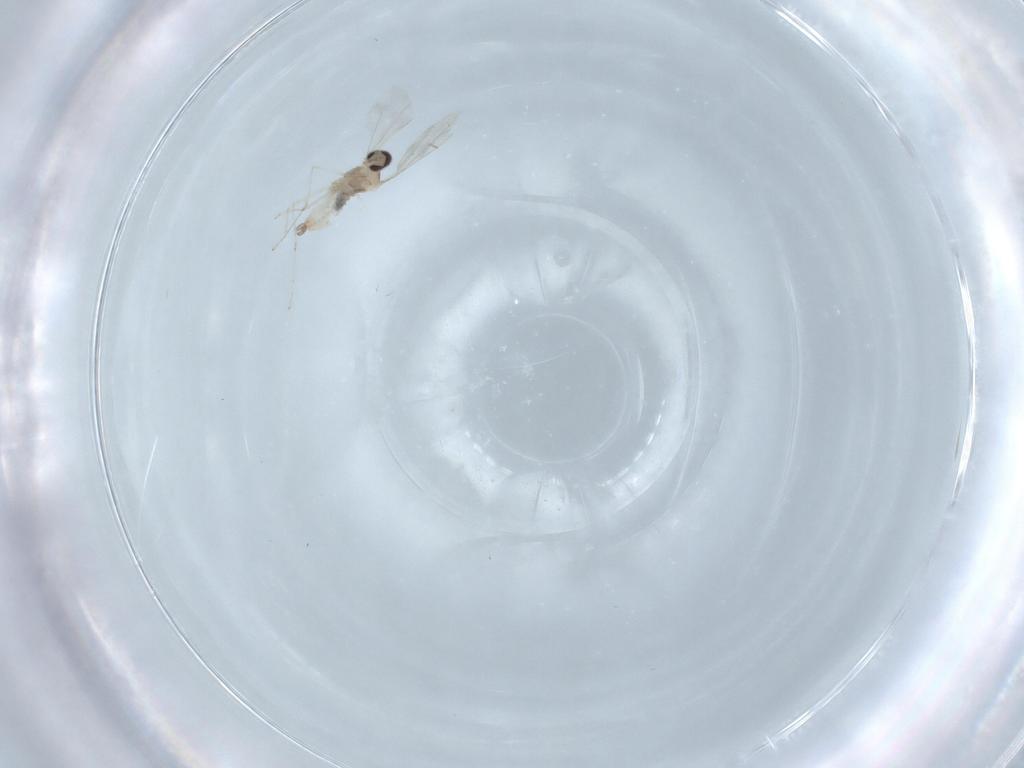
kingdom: Animalia
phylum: Arthropoda
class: Insecta
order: Diptera
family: Cecidomyiidae
